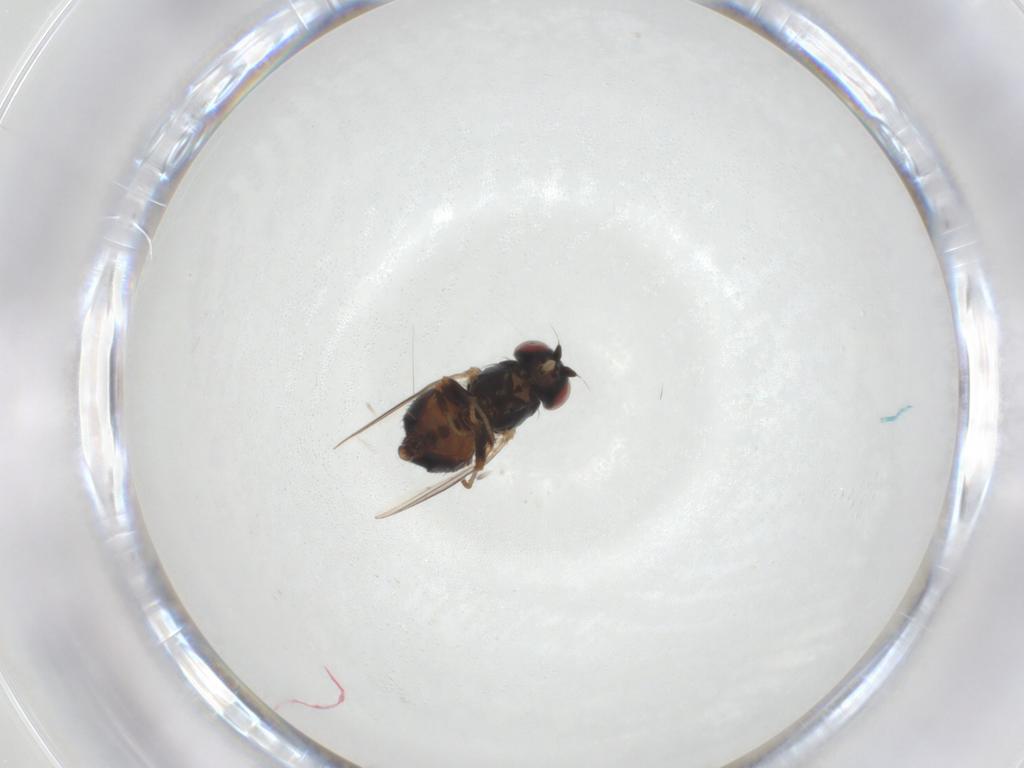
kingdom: Animalia
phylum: Arthropoda
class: Insecta
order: Diptera
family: Chamaemyiidae
